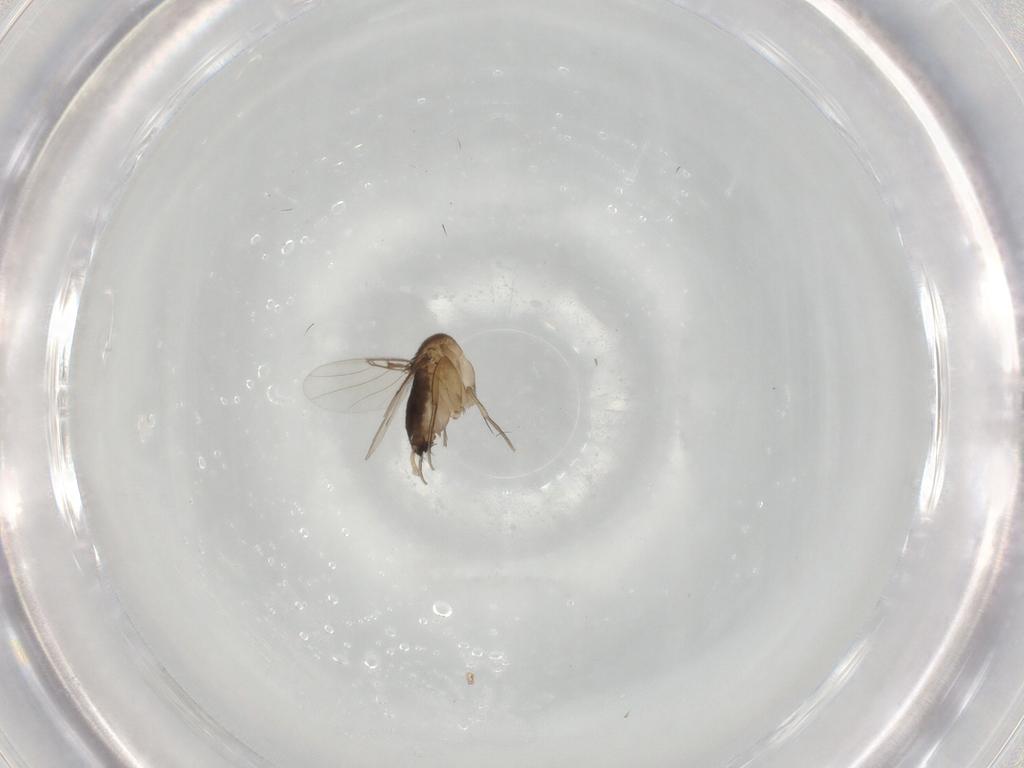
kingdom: Animalia
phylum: Arthropoda
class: Insecta
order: Diptera
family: Phoridae
